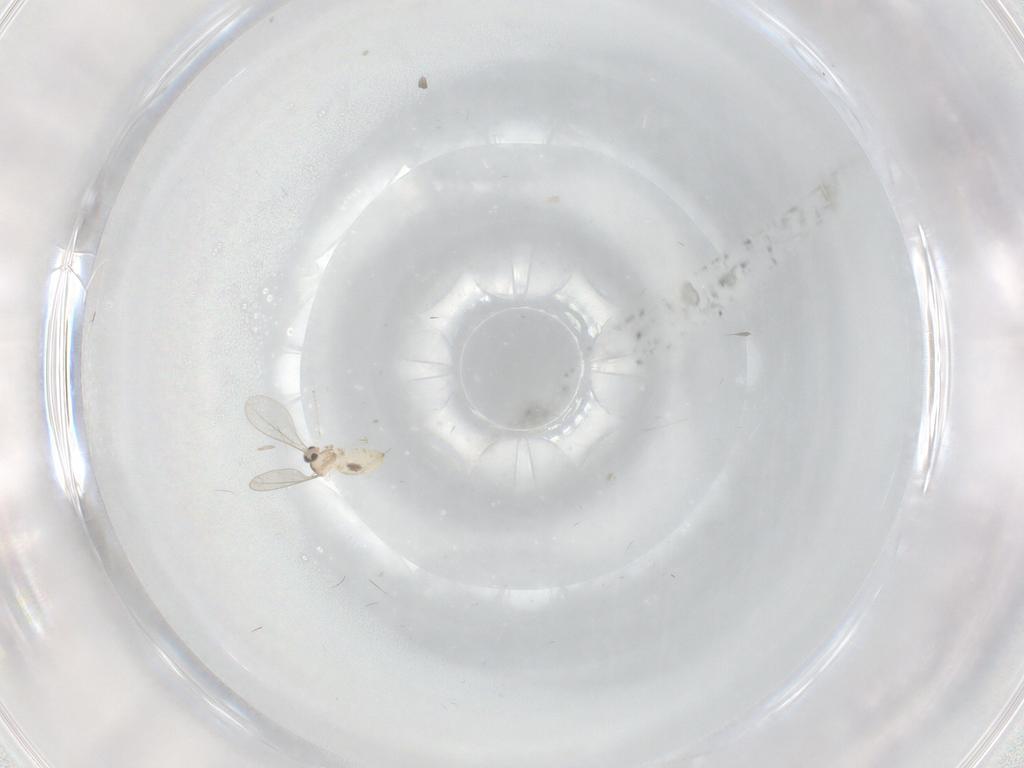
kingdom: Animalia
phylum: Arthropoda
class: Insecta
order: Diptera
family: Cecidomyiidae
